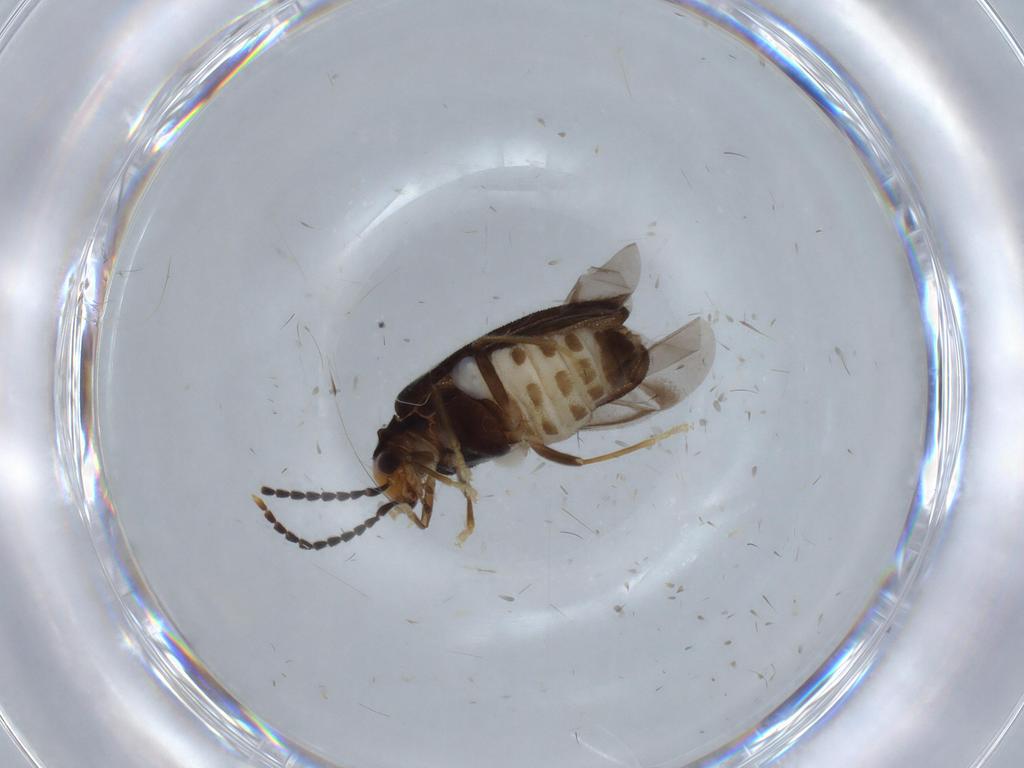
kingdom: Animalia
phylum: Arthropoda
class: Insecta
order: Coleoptera
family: Cantharidae
